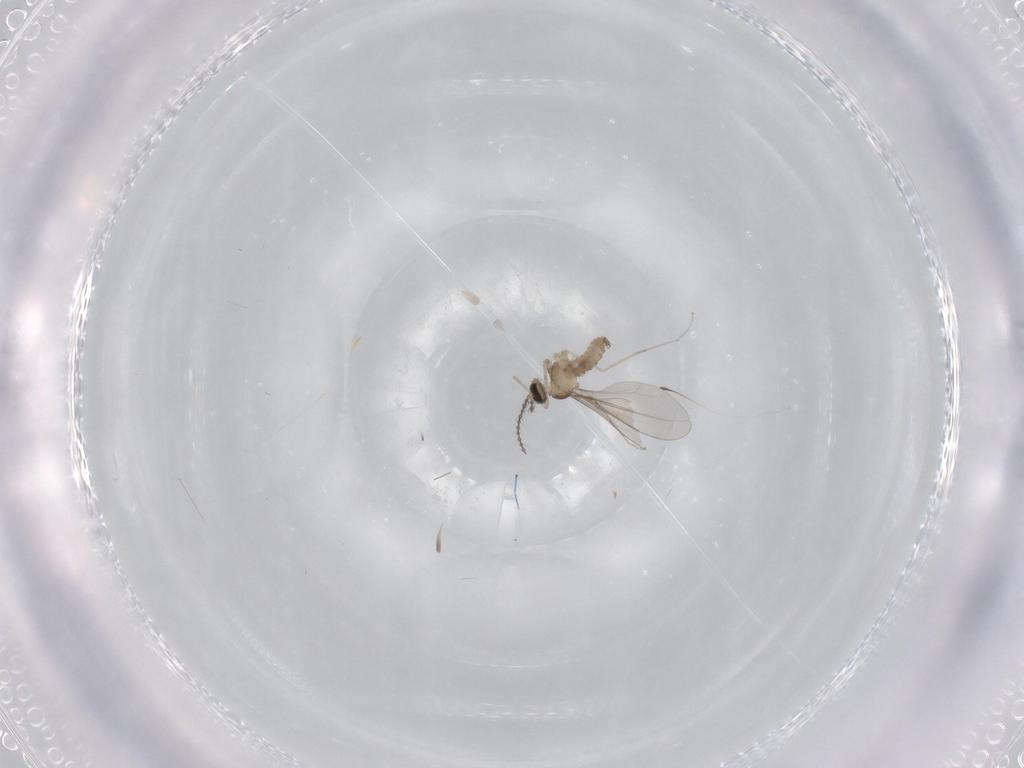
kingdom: Animalia
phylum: Arthropoda
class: Insecta
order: Diptera
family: Cecidomyiidae
